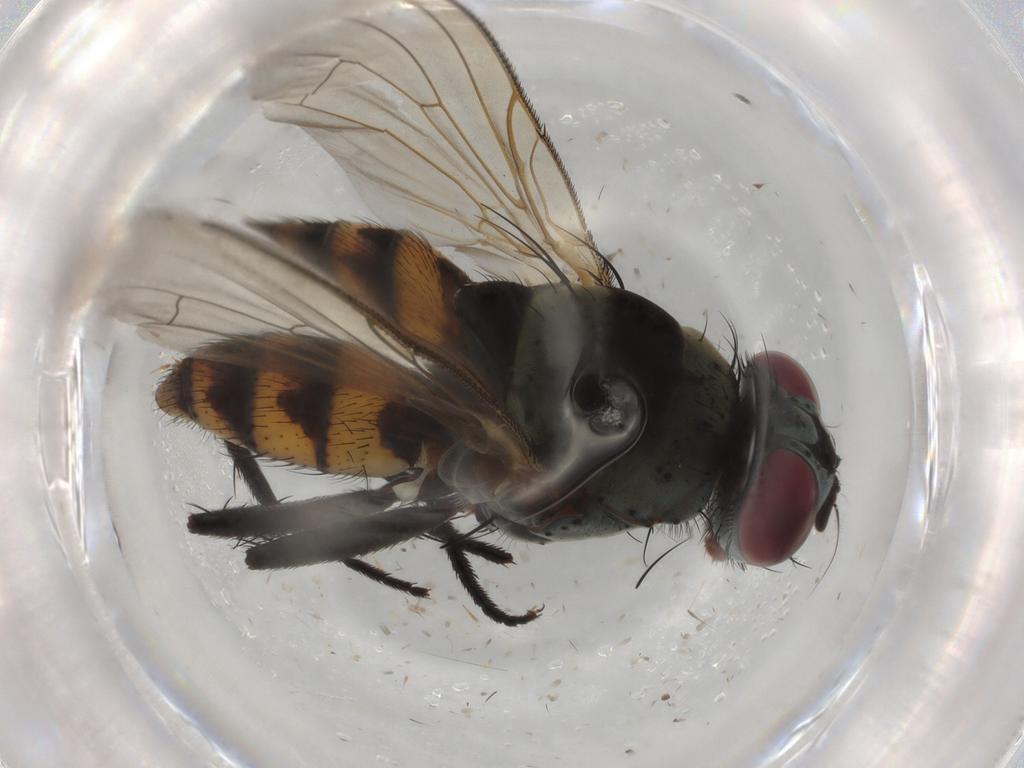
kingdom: Animalia
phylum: Arthropoda
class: Insecta
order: Diptera
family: Anthomyiidae
